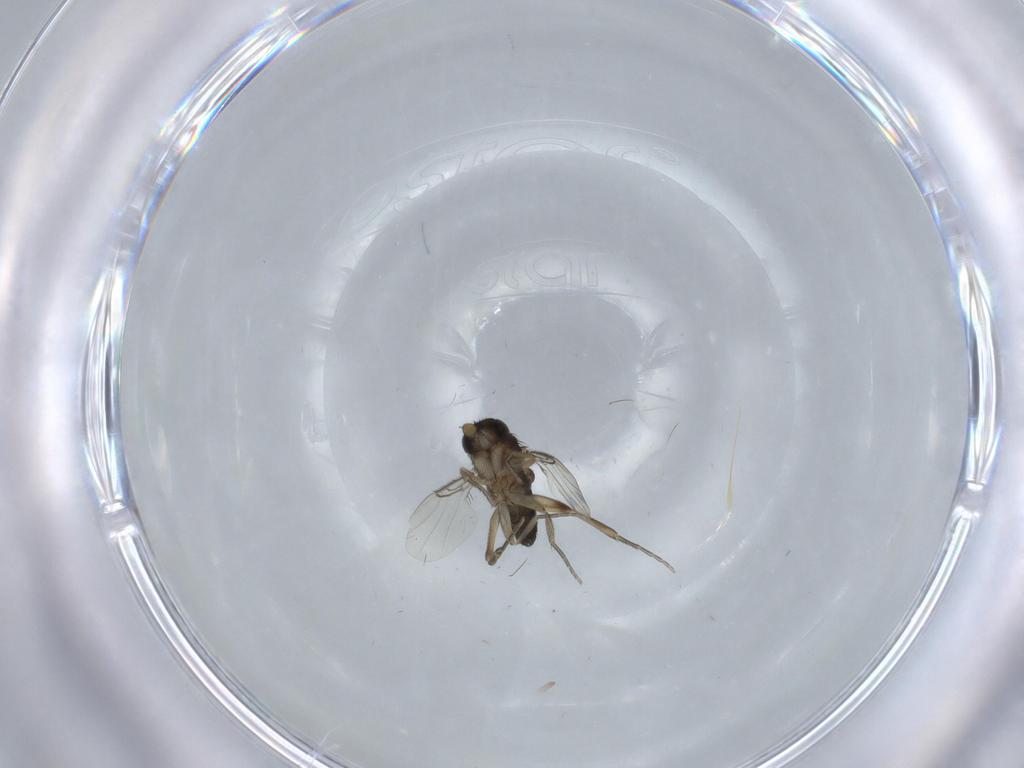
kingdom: Animalia
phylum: Arthropoda
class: Insecta
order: Diptera
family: Phoridae
